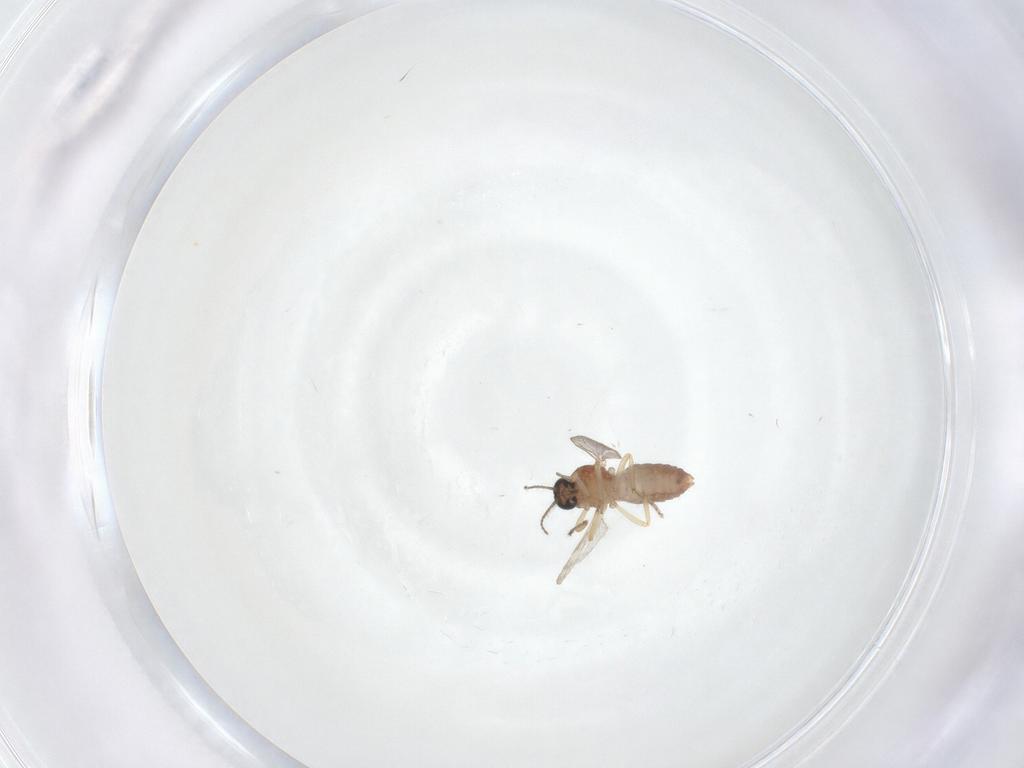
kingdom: Animalia
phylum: Arthropoda
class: Insecta
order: Diptera
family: Ceratopogonidae
